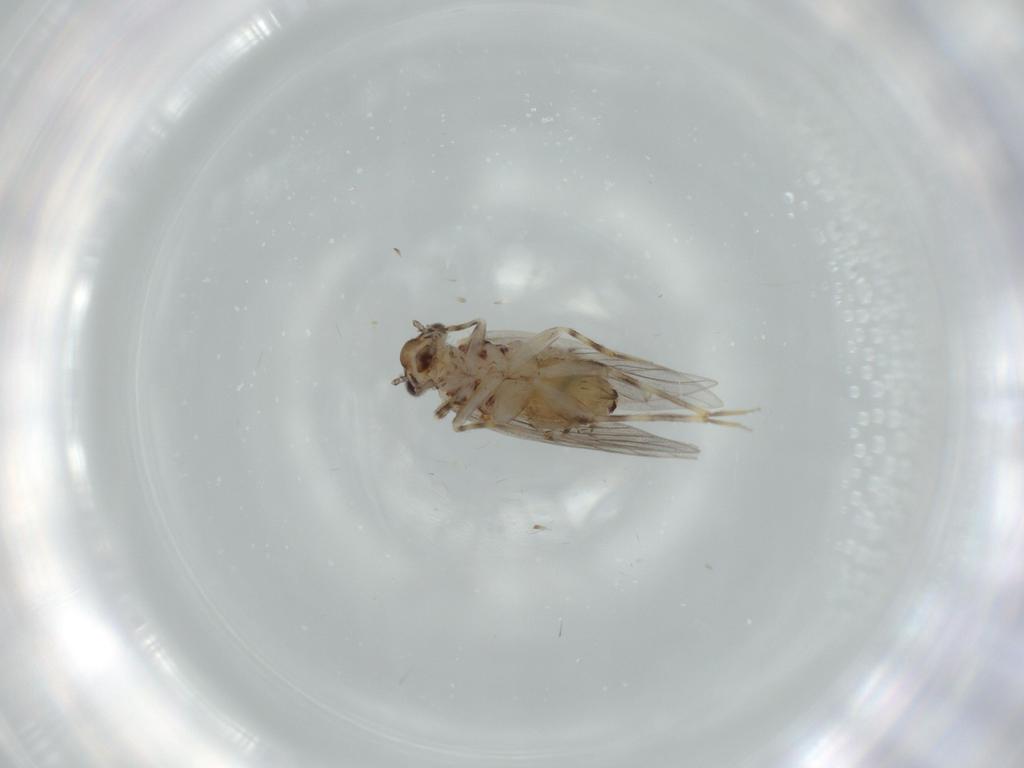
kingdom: Animalia
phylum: Arthropoda
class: Insecta
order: Psocodea
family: Lepidopsocidae
